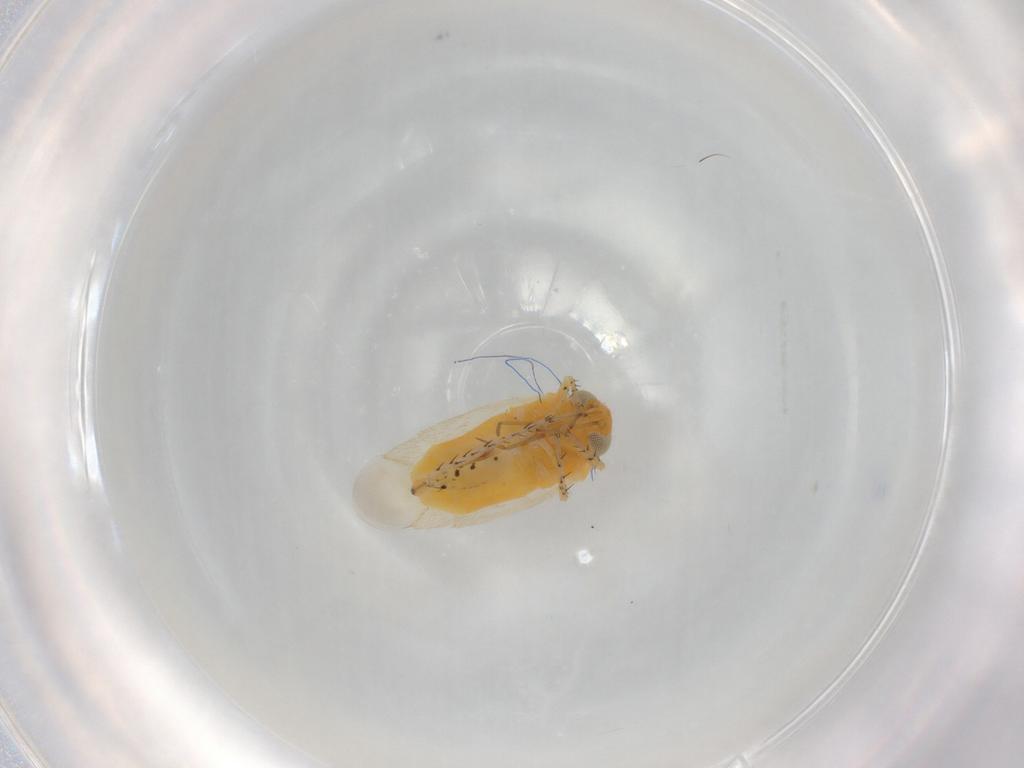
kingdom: Animalia
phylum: Arthropoda
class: Insecta
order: Hemiptera
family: Miridae
